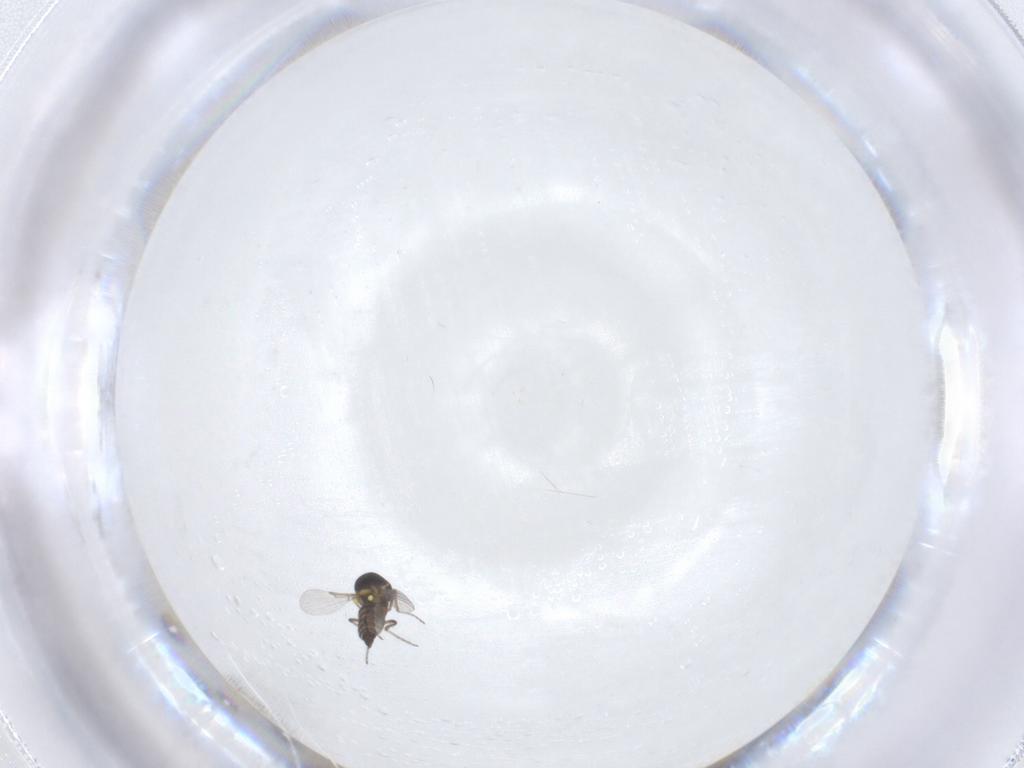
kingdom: Animalia
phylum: Arthropoda
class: Insecta
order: Diptera
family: Ceratopogonidae
